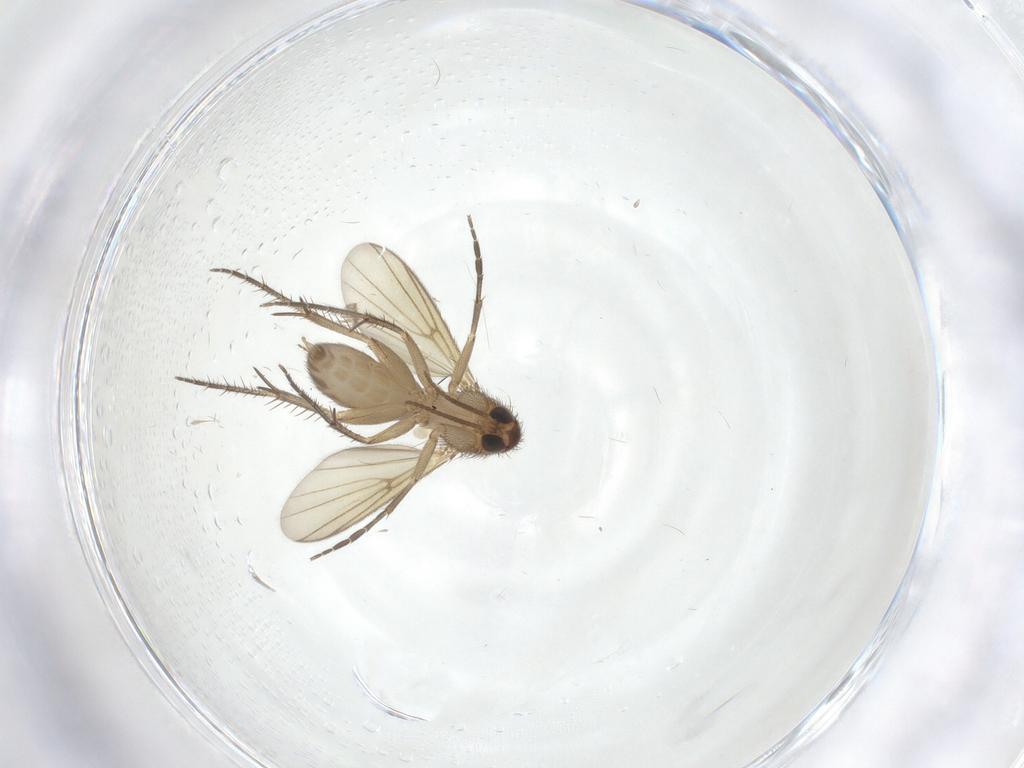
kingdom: Animalia
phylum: Arthropoda
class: Insecta
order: Diptera
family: Mycetophilidae
